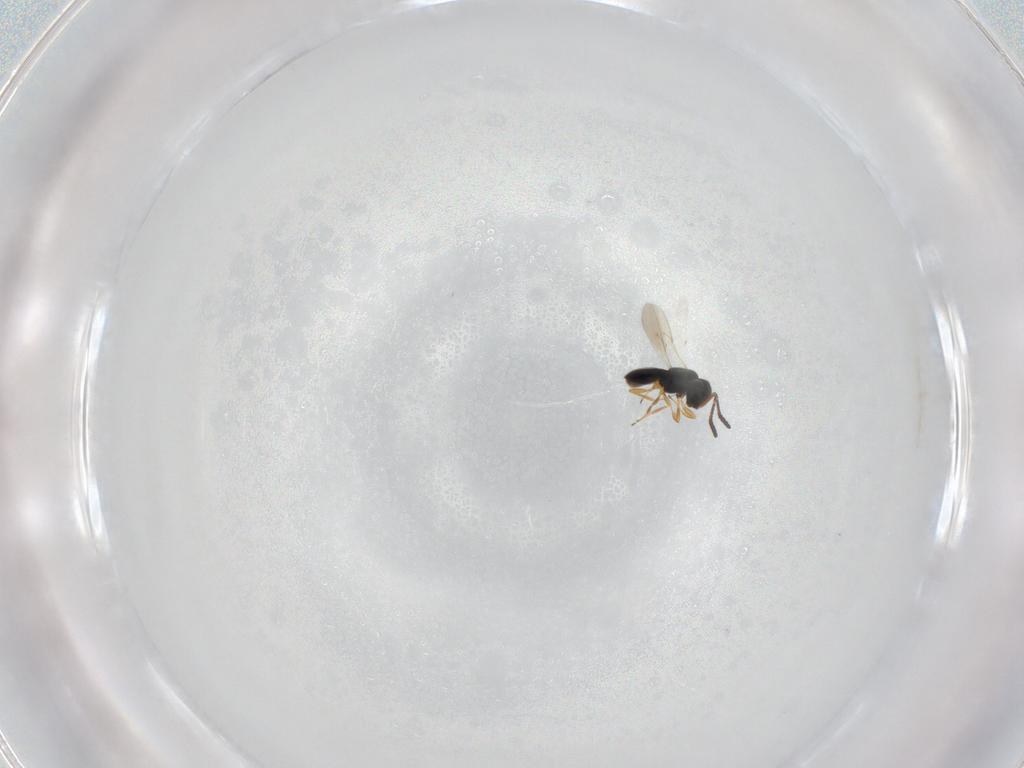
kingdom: Animalia
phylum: Arthropoda
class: Insecta
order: Hymenoptera
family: Scelionidae
